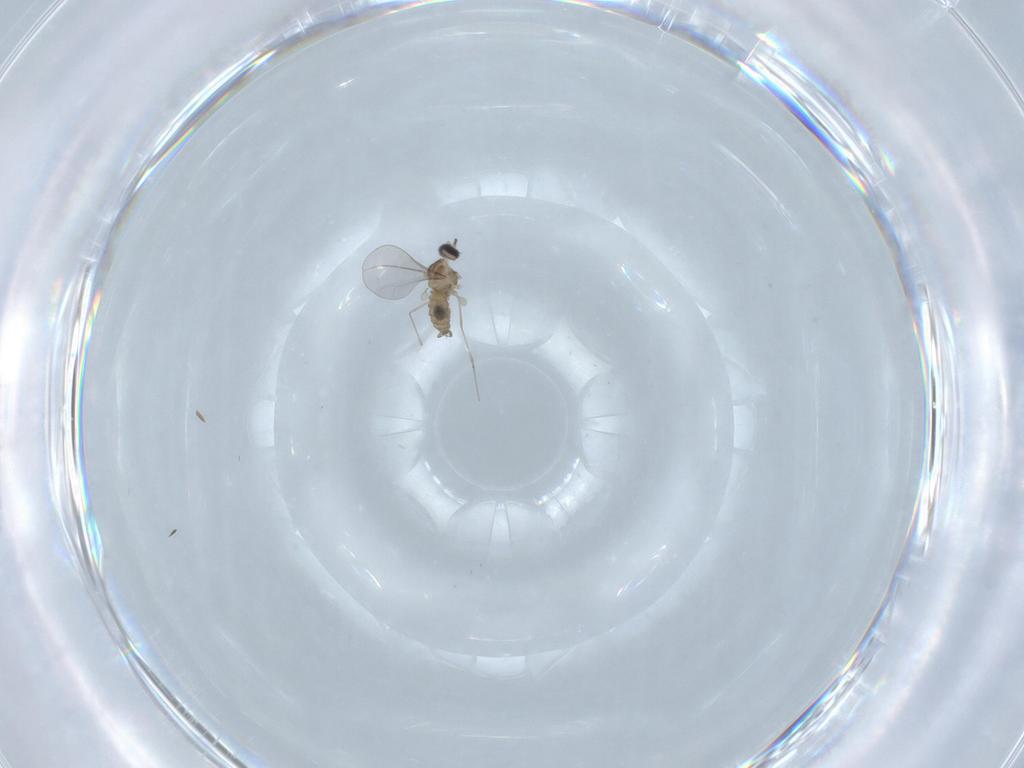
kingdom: Animalia
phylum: Arthropoda
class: Insecta
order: Diptera
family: Cecidomyiidae
